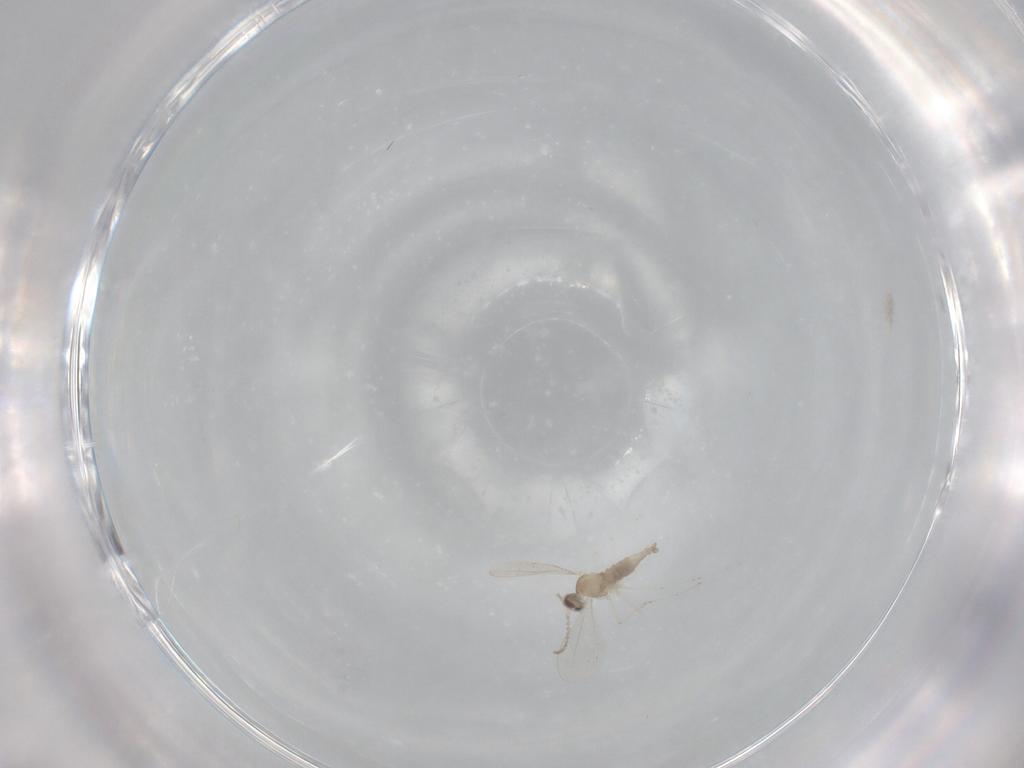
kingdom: Animalia
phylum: Arthropoda
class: Insecta
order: Diptera
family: Cecidomyiidae
